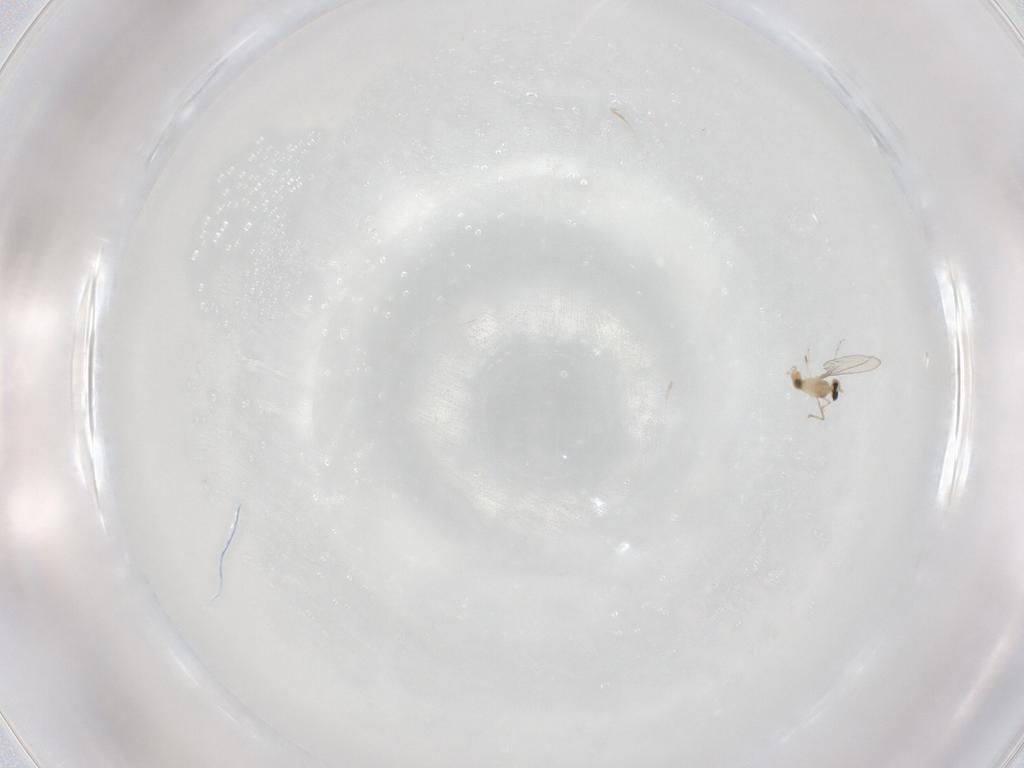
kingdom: Animalia
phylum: Arthropoda
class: Insecta
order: Diptera
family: Cecidomyiidae
